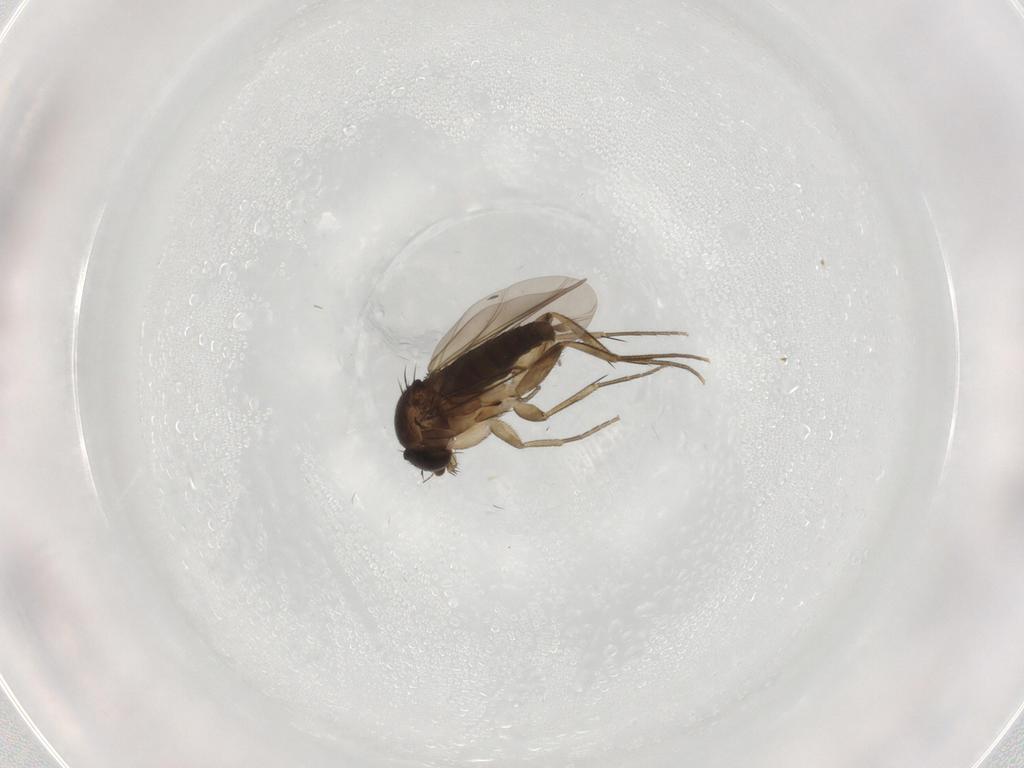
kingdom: Animalia
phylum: Arthropoda
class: Insecta
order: Diptera
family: Phoridae
